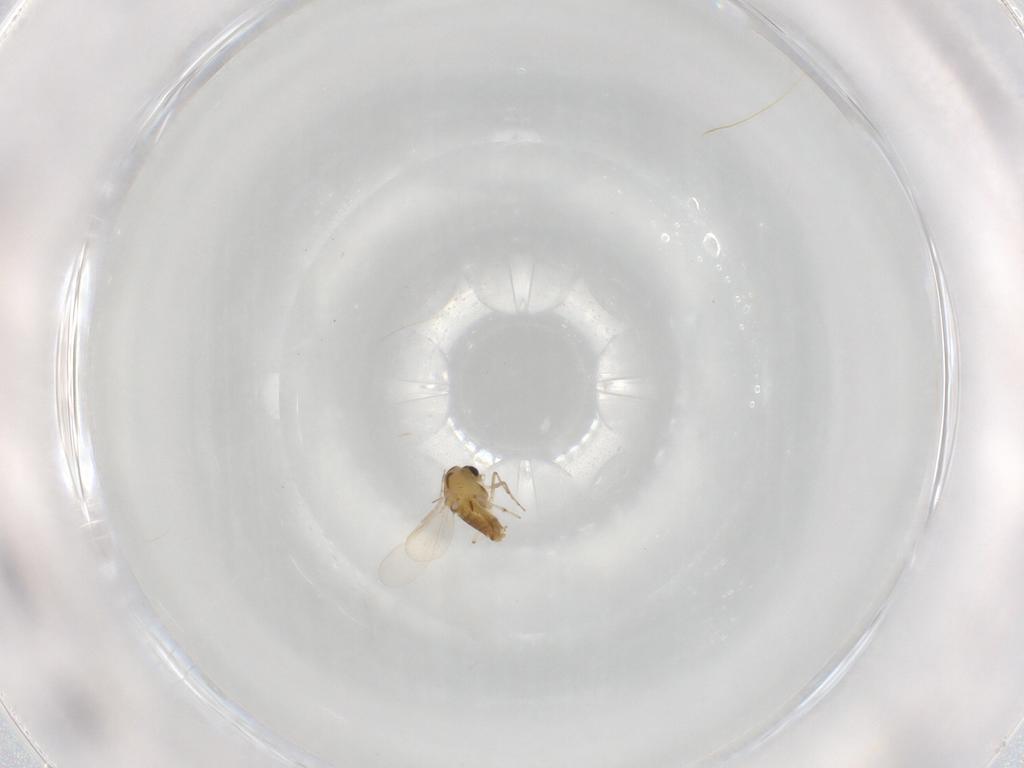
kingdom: Animalia
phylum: Arthropoda
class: Insecta
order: Diptera
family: Chironomidae
